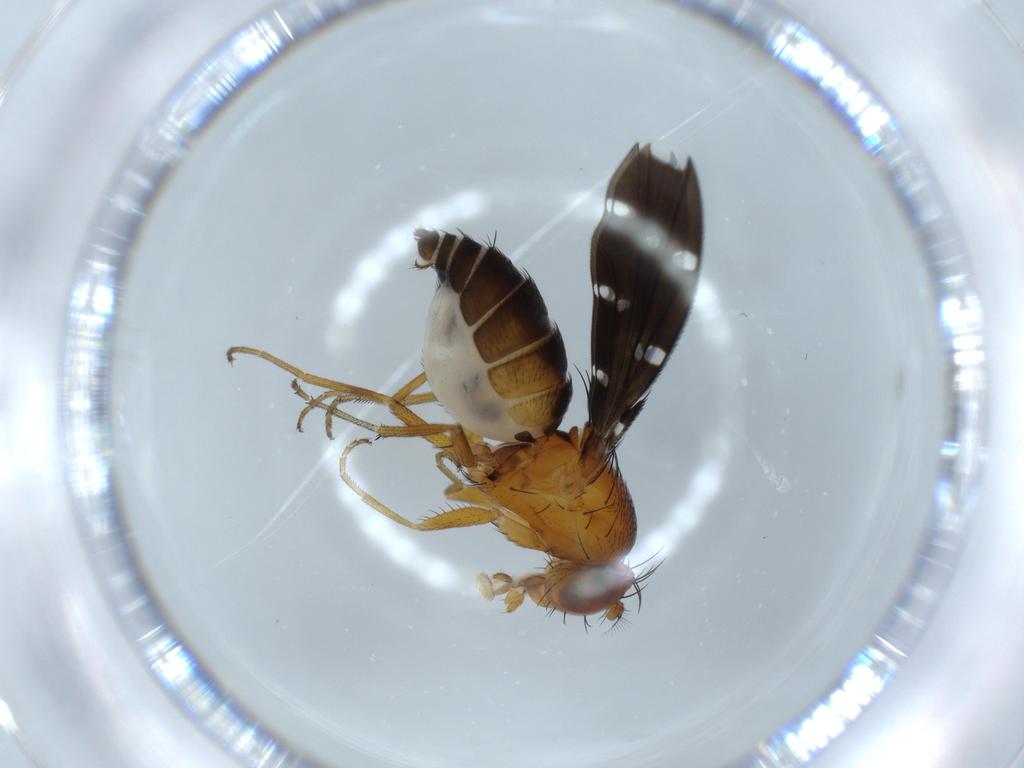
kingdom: Animalia
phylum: Arthropoda
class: Insecta
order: Diptera
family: Ephydridae
